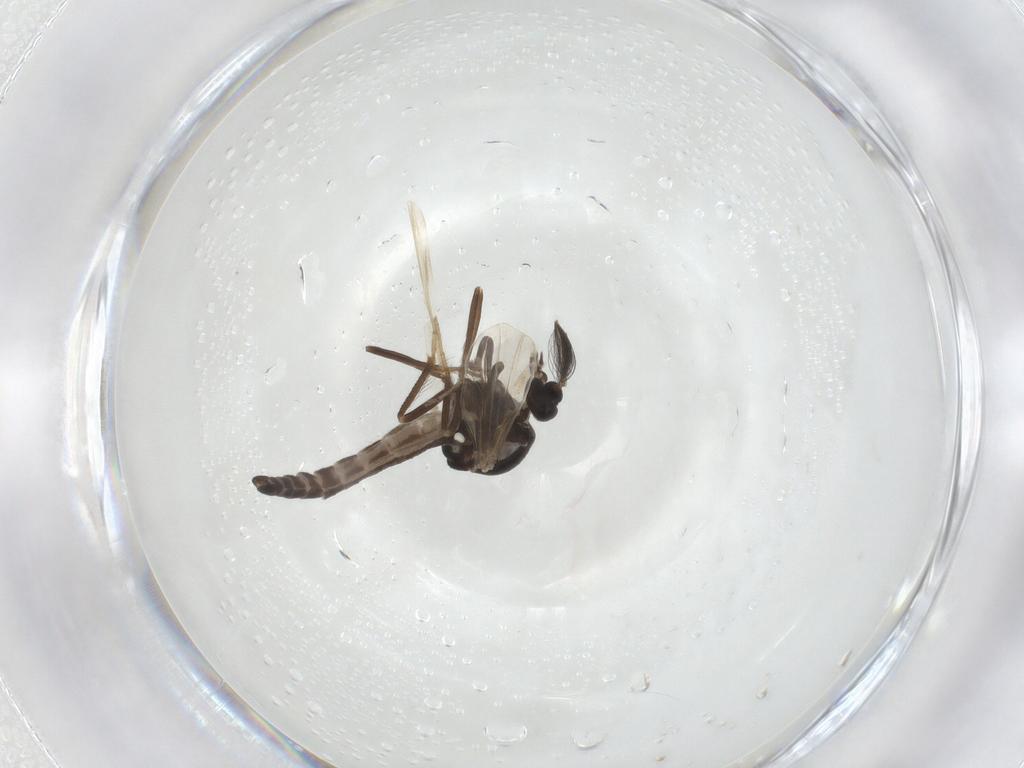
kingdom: Animalia
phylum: Arthropoda
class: Insecta
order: Diptera
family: Ceratopogonidae
